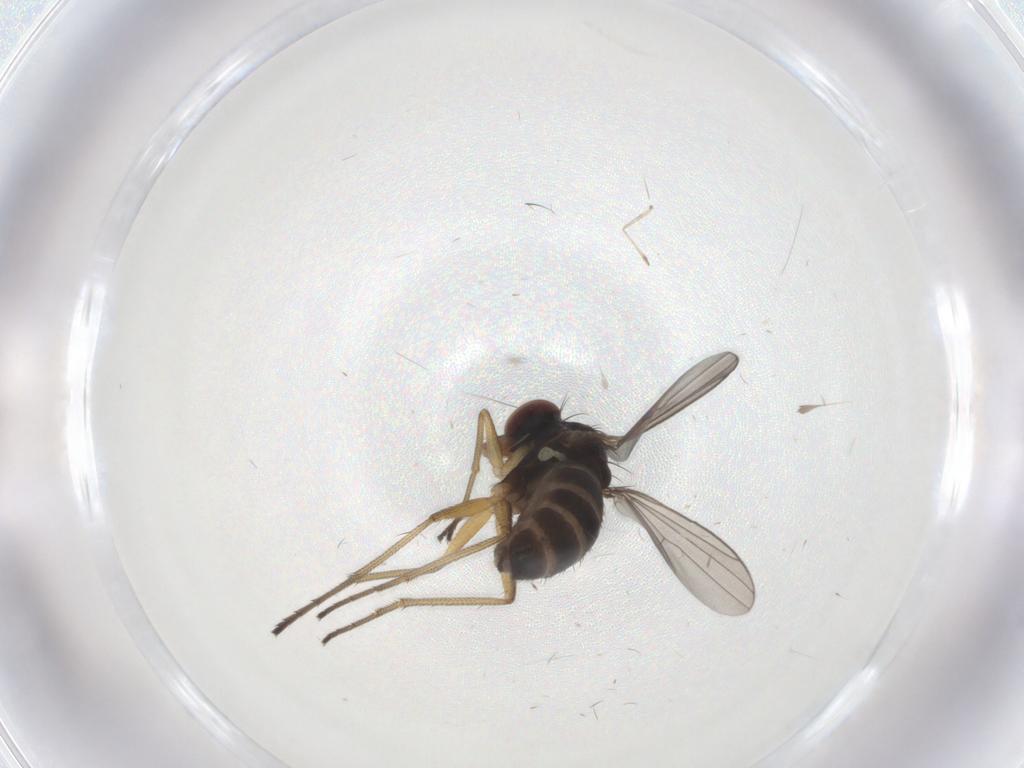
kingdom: Animalia
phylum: Arthropoda
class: Insecta
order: Diptera
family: Dolichopodidae
